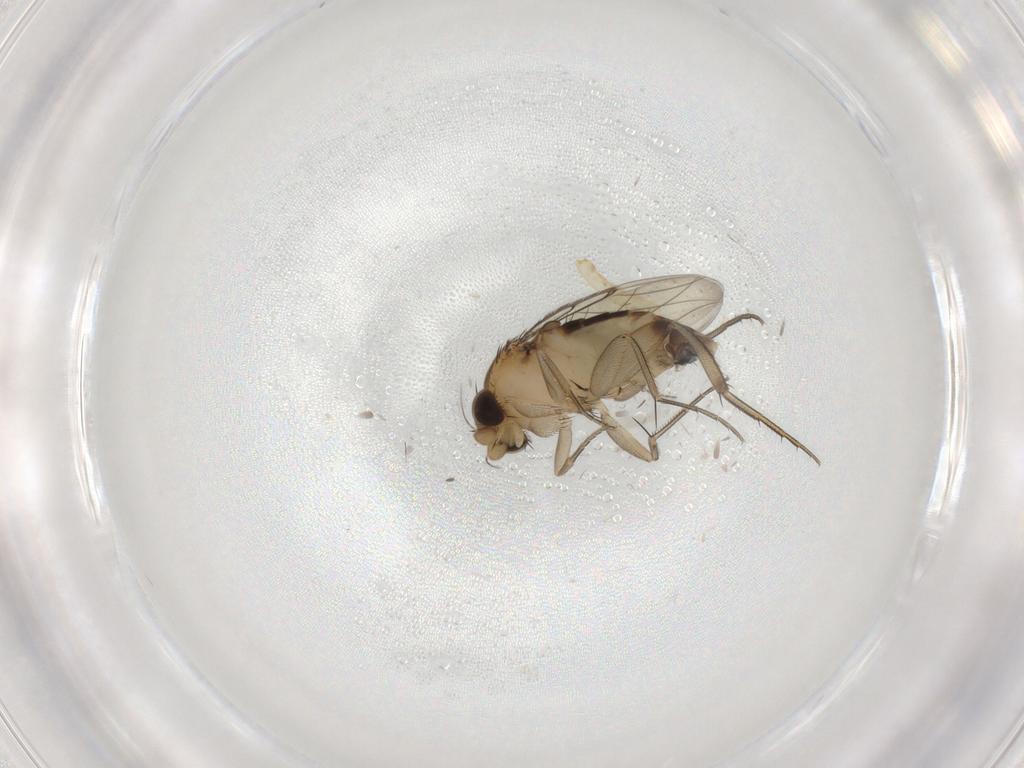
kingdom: Animalia
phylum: Arthropoda
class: Insecta
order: Diptera
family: Phoridae
